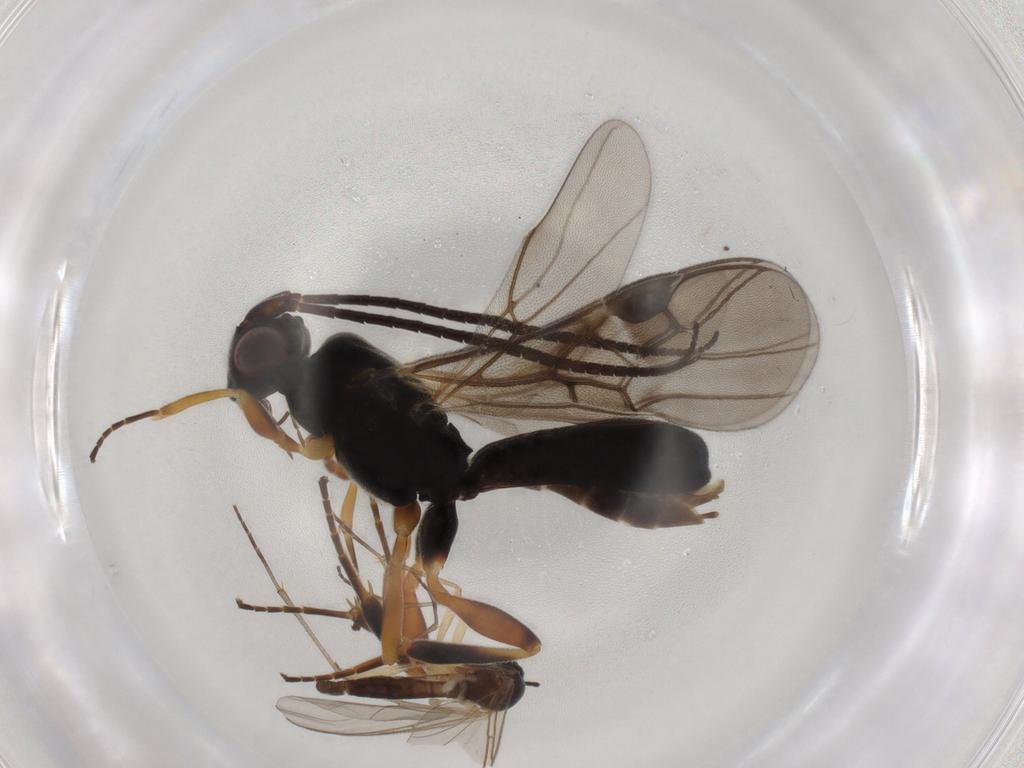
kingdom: Animalia
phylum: Arthropoda
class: Insecta
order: Diptera
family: Sciaridae
